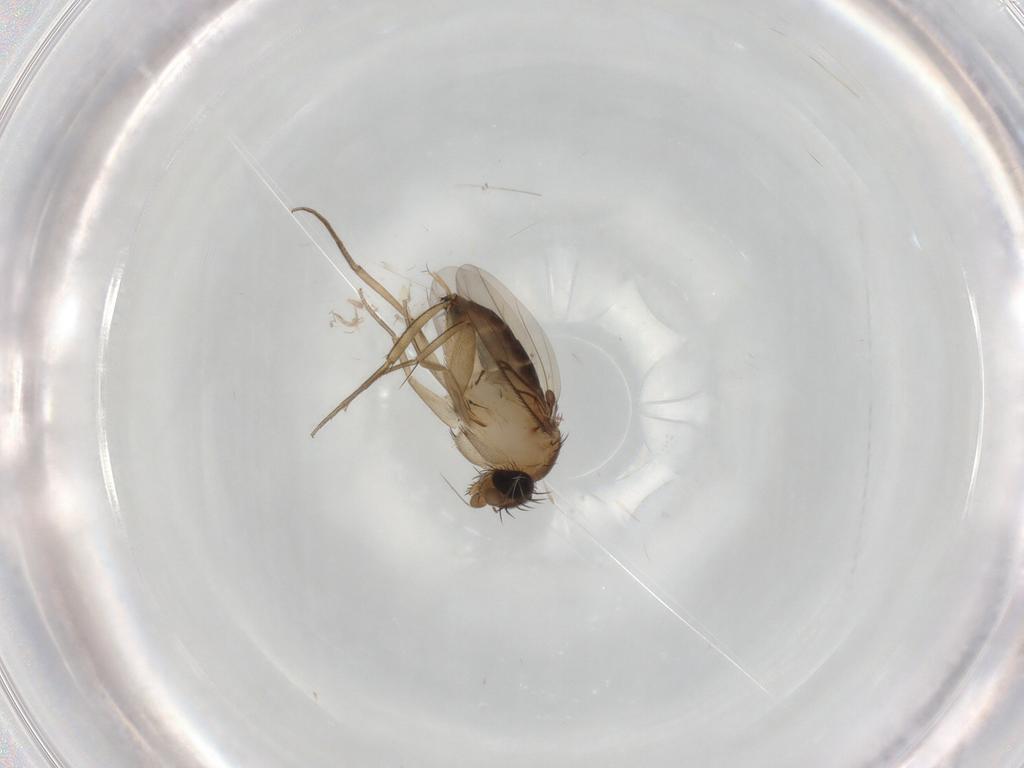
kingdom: Animalia
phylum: Arthropoda
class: Insecta
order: Diptera
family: Phoridae
